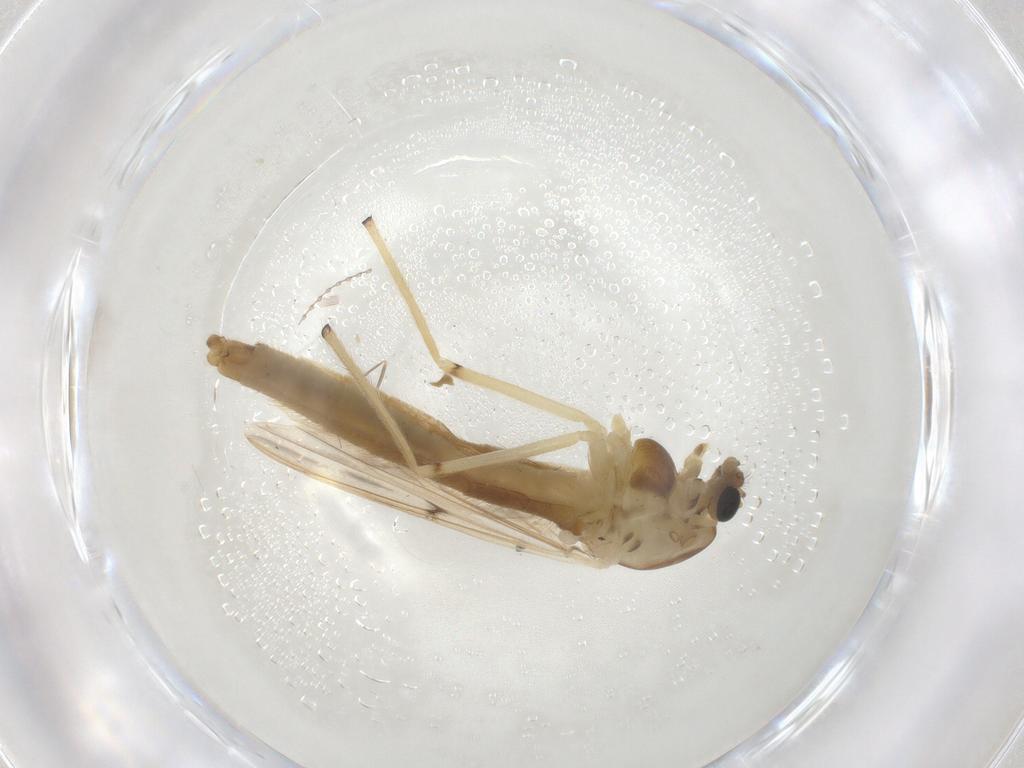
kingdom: Animalia
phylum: Arthropoda
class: Insecta
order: Diptera
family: Chironomidae
